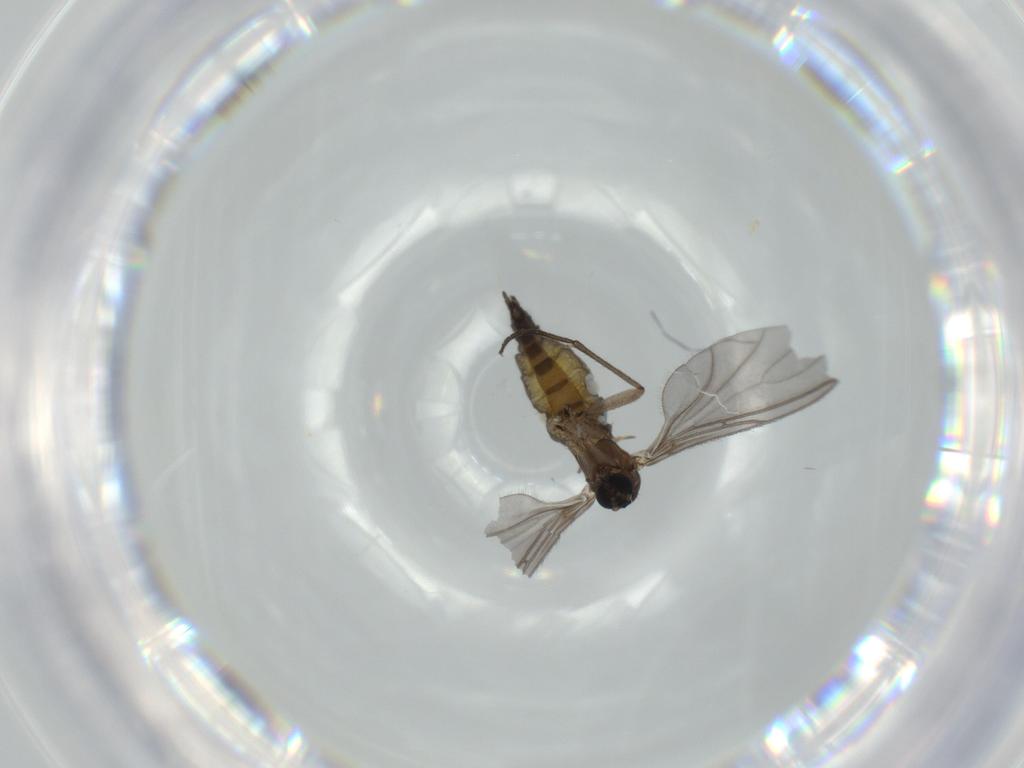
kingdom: Animalia
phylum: Arthropoda
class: Insecta
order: Diptera
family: Sciaridae
